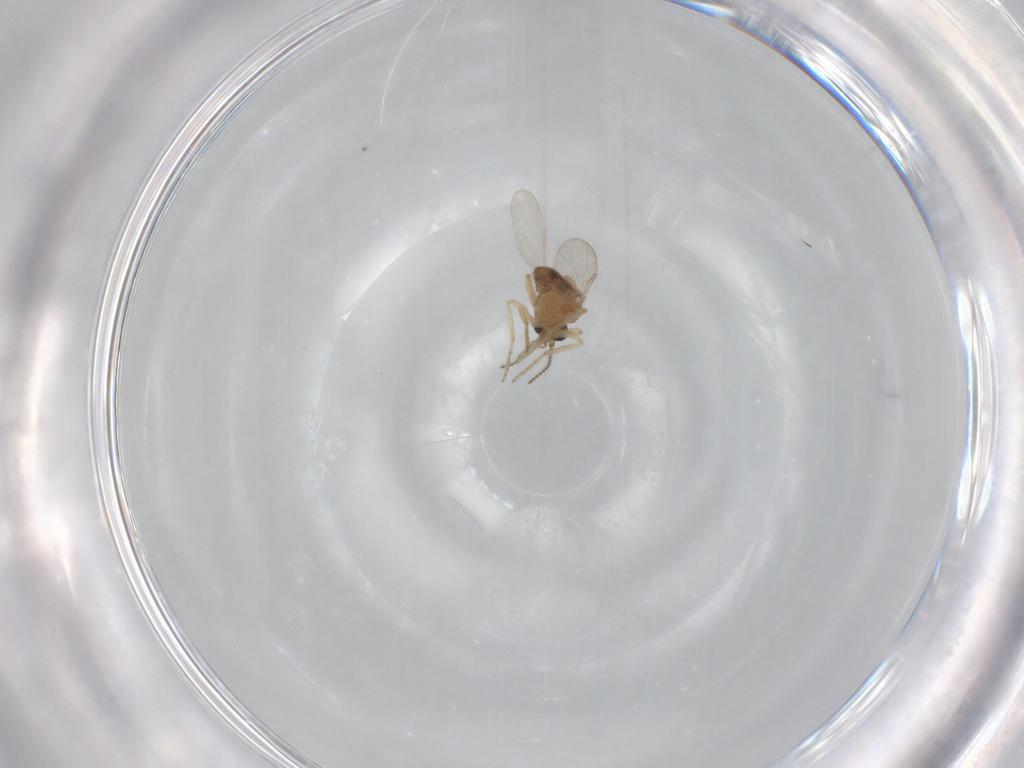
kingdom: Animalia
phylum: Arthropoda
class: Insecta
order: Diptera
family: Ceratopogonidae
